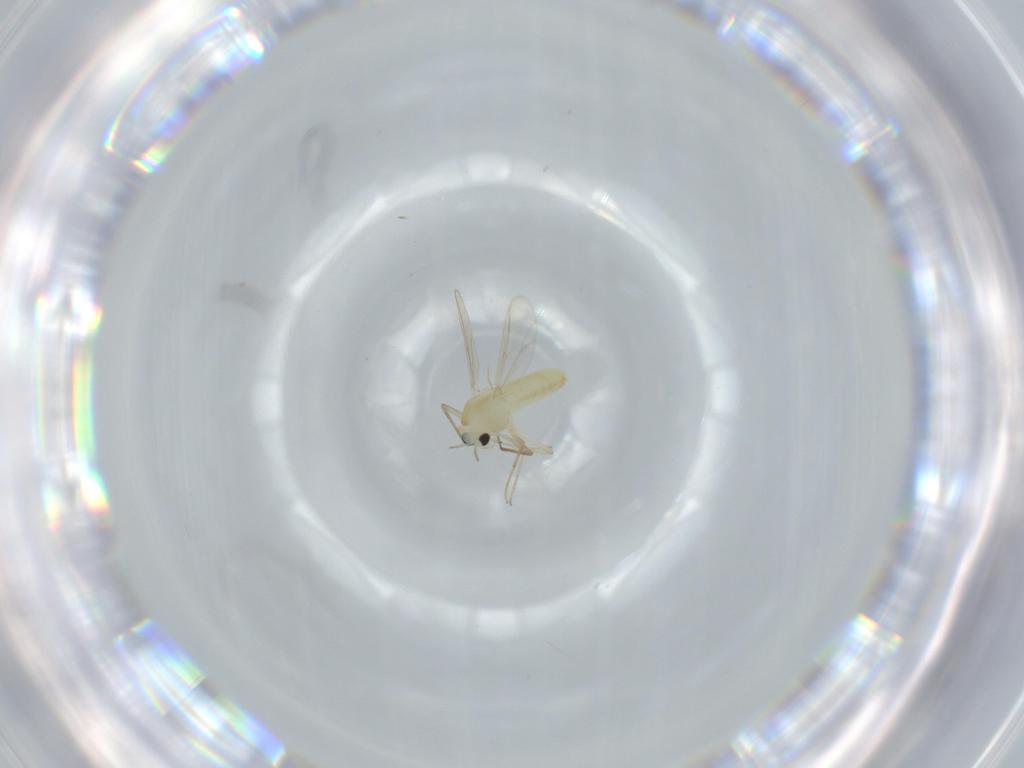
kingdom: Animalia
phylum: Arthropoda
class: Insecta
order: Diptera
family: Chironomidae
